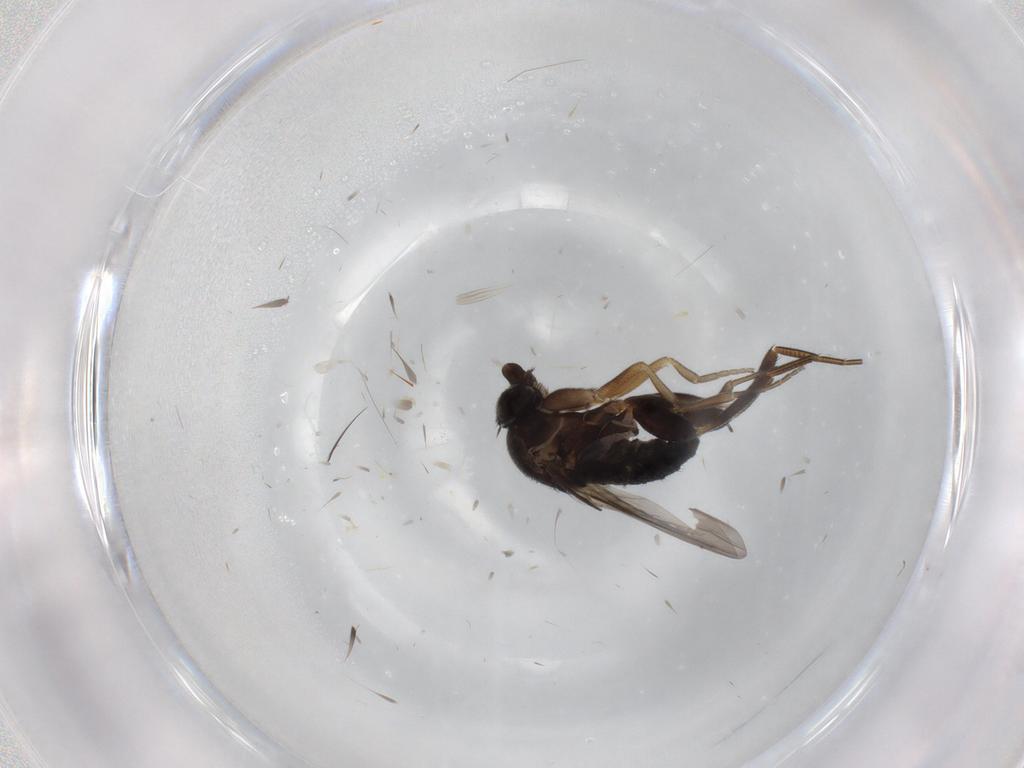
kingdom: Animalia
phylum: Arthropoda
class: Insecta
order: Diptera
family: Phoridae
